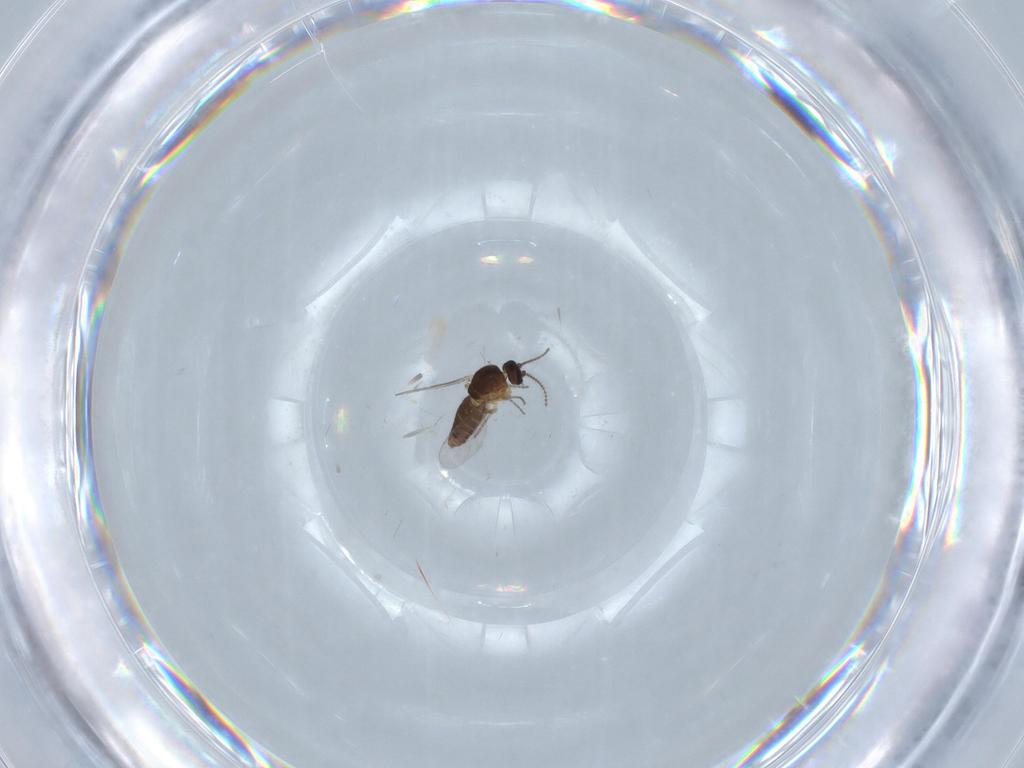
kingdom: Animalia
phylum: Arthropoda
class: Insecta
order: Diptera
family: Ceratopogonidae
